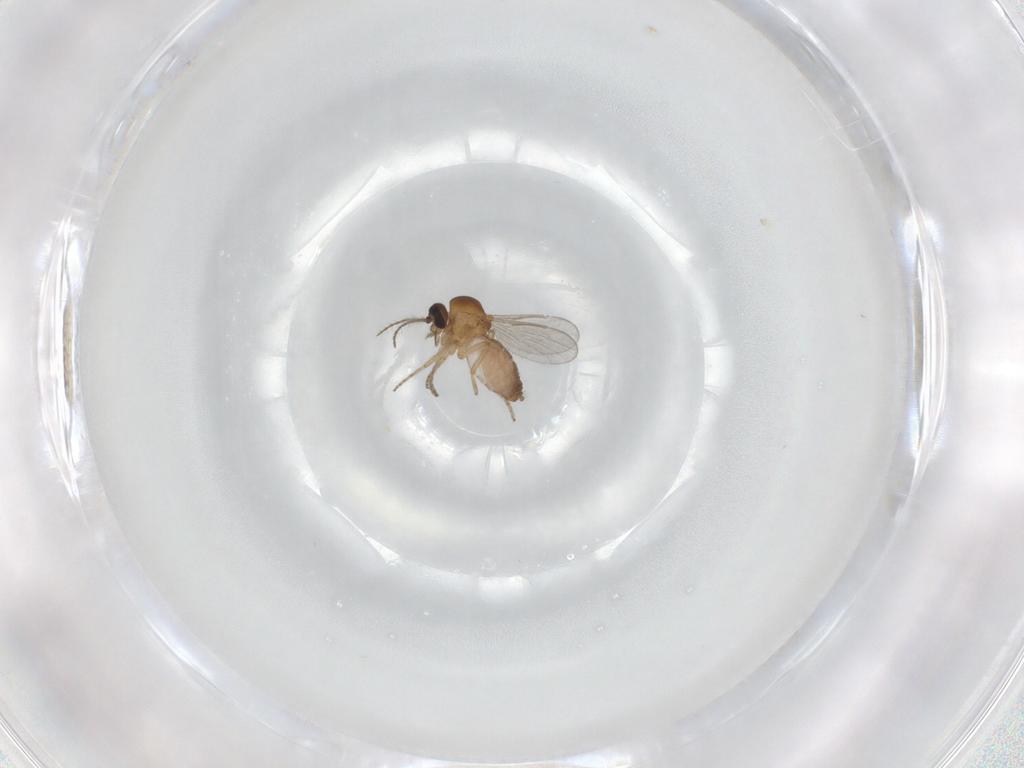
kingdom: Animalia
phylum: Arthropoda
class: Insecta
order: Diptera
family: Ceratopogonidae
